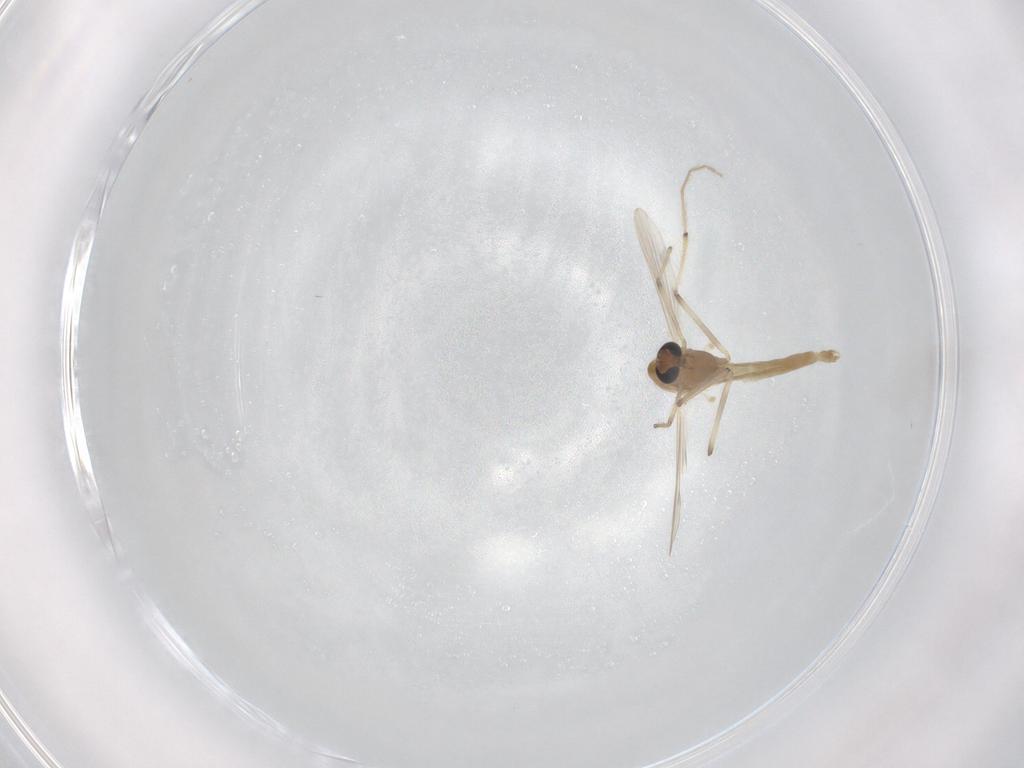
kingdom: Animalia
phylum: Arthropoda
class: Insecta
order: Diptera
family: Chironomidae
